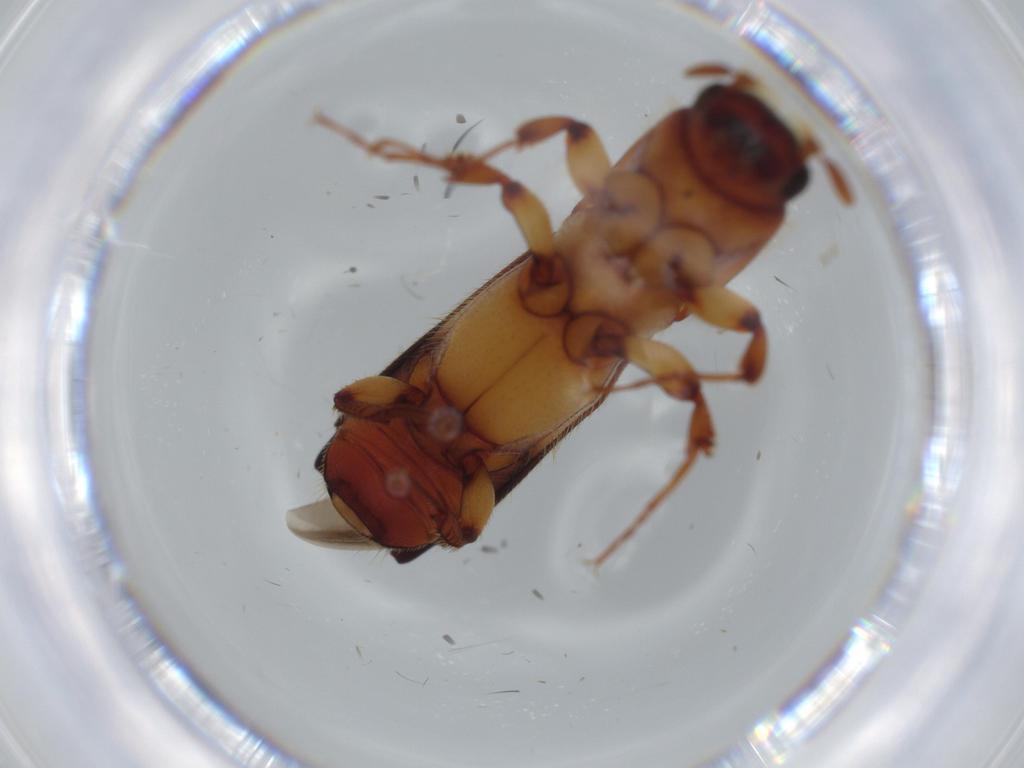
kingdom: Animalia
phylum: Arthropoda
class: Insecta
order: Coleoptera
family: Curculionidae
